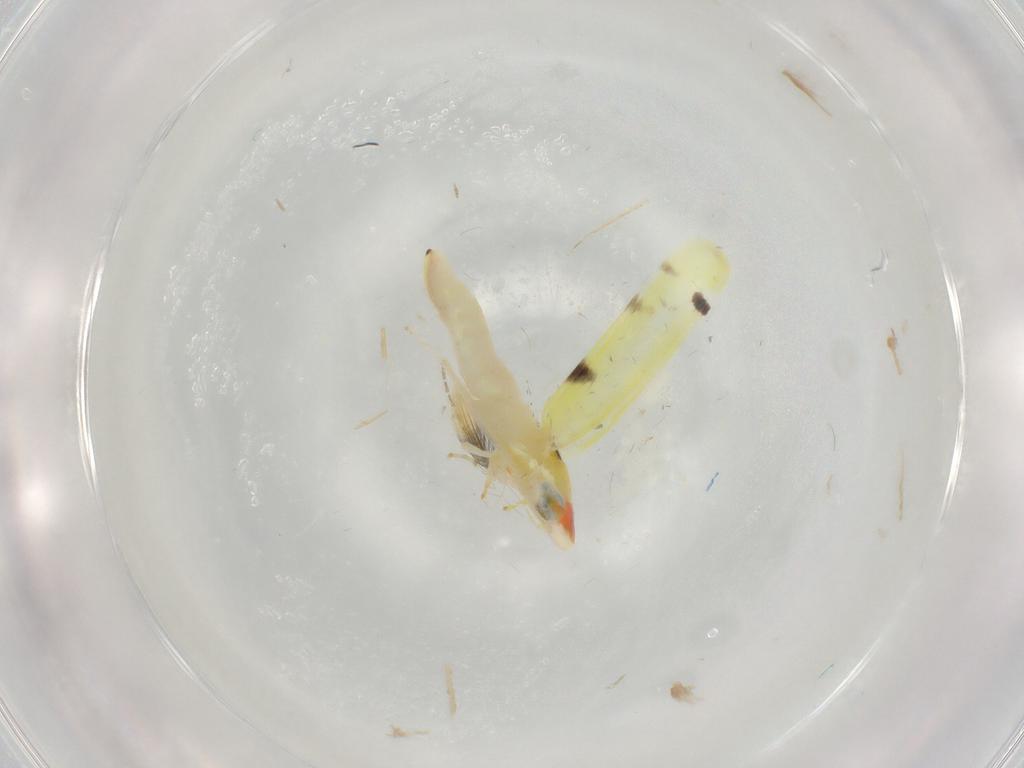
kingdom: Animalia
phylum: Arthropoda
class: Insecta
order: Hemiptera
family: Cicadellidae
